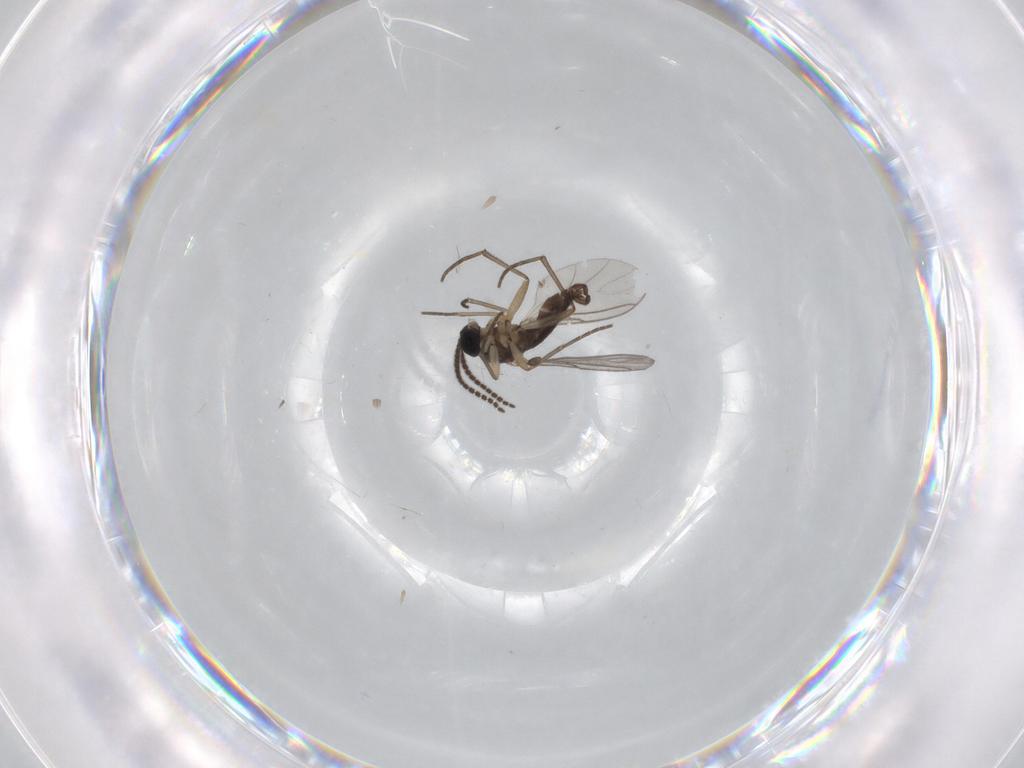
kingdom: Animalia
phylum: Arthropoda
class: Insecta
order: Diptera
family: Sciaridae
